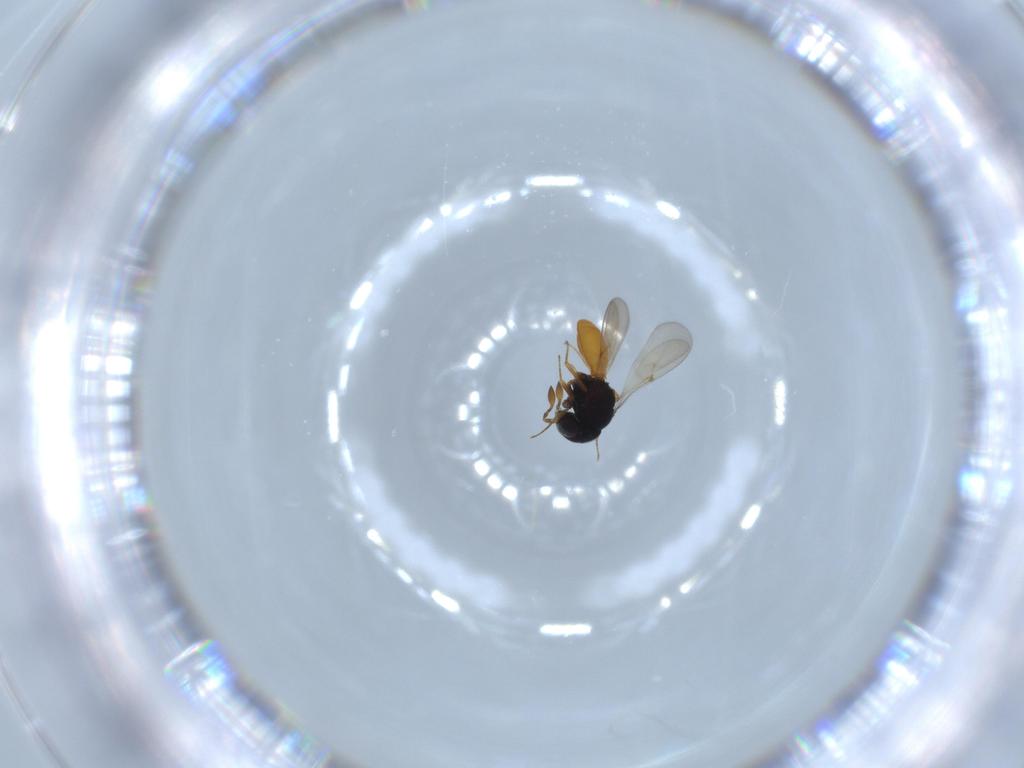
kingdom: Animalia
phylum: Arthropoda
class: Insecta
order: Hymenoptera
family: Scelionidae
